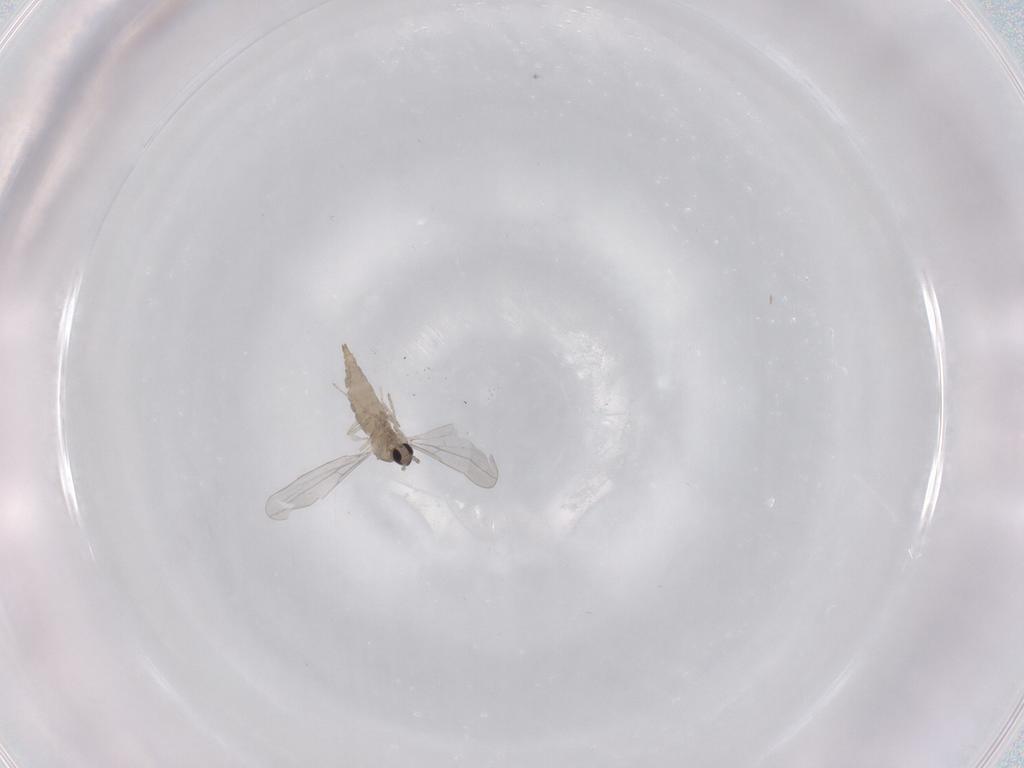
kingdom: Animalia
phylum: Arthropoda
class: Insecta
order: Diptera
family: Cecidomyiidae
